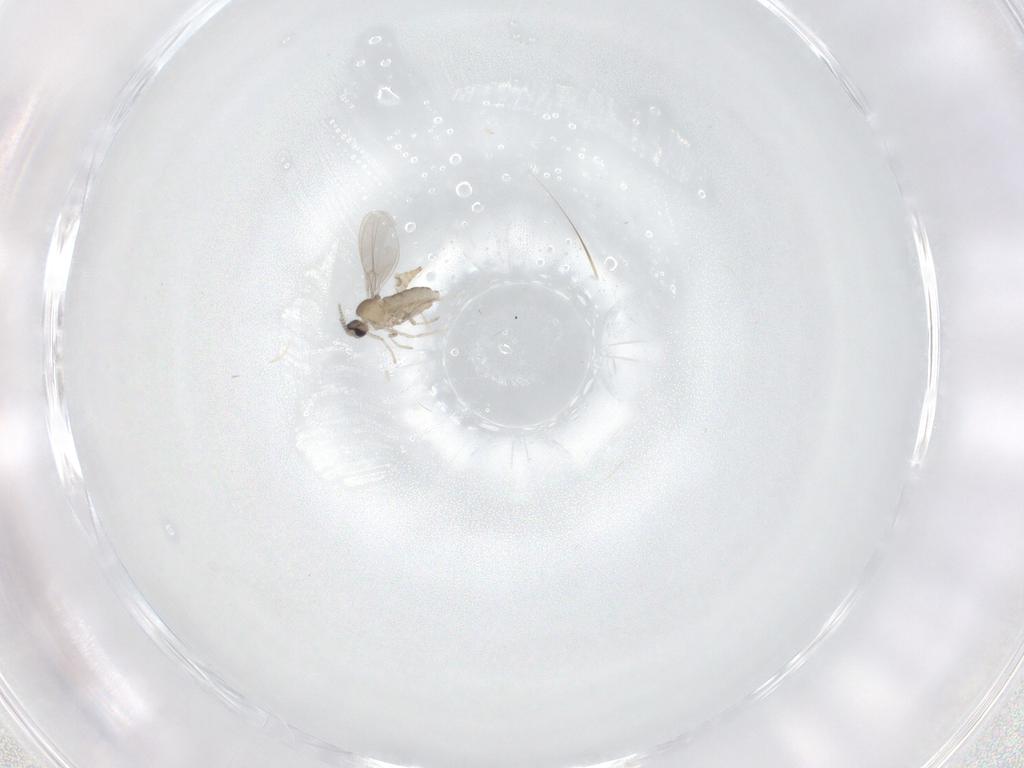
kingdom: Animalia
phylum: Arthropoda
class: Insecta
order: Diptera
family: Cecidomyiidae
